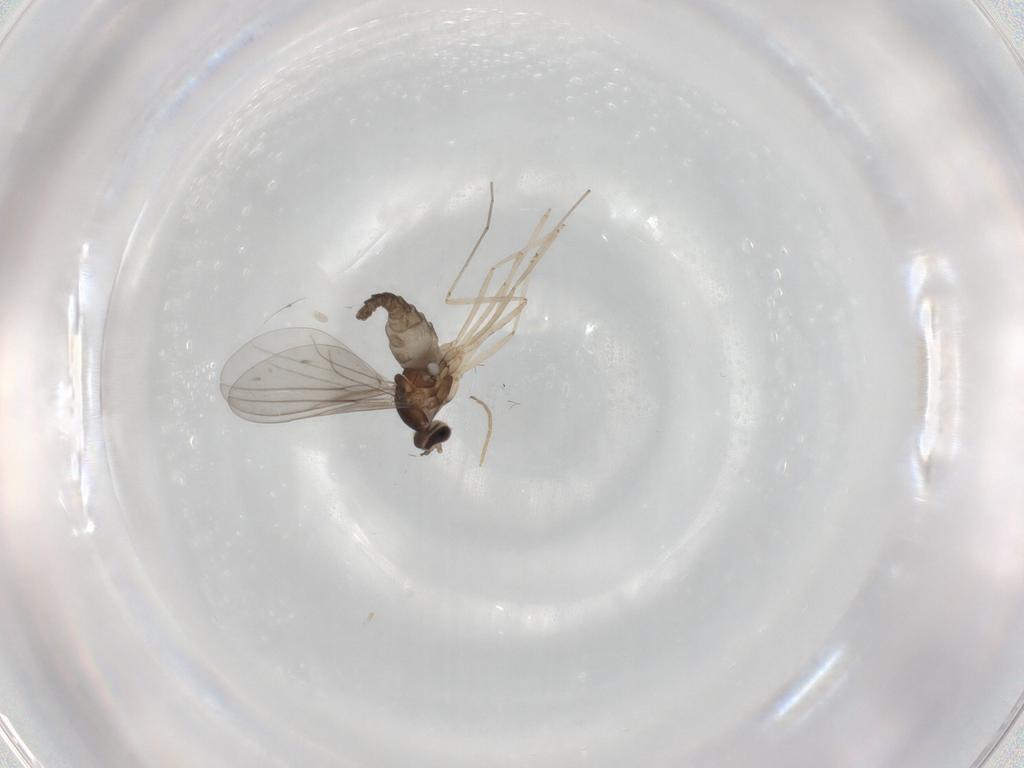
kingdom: Animalia
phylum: Arthropoda
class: Insecta
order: Diptera
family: Cecidomyiidae
